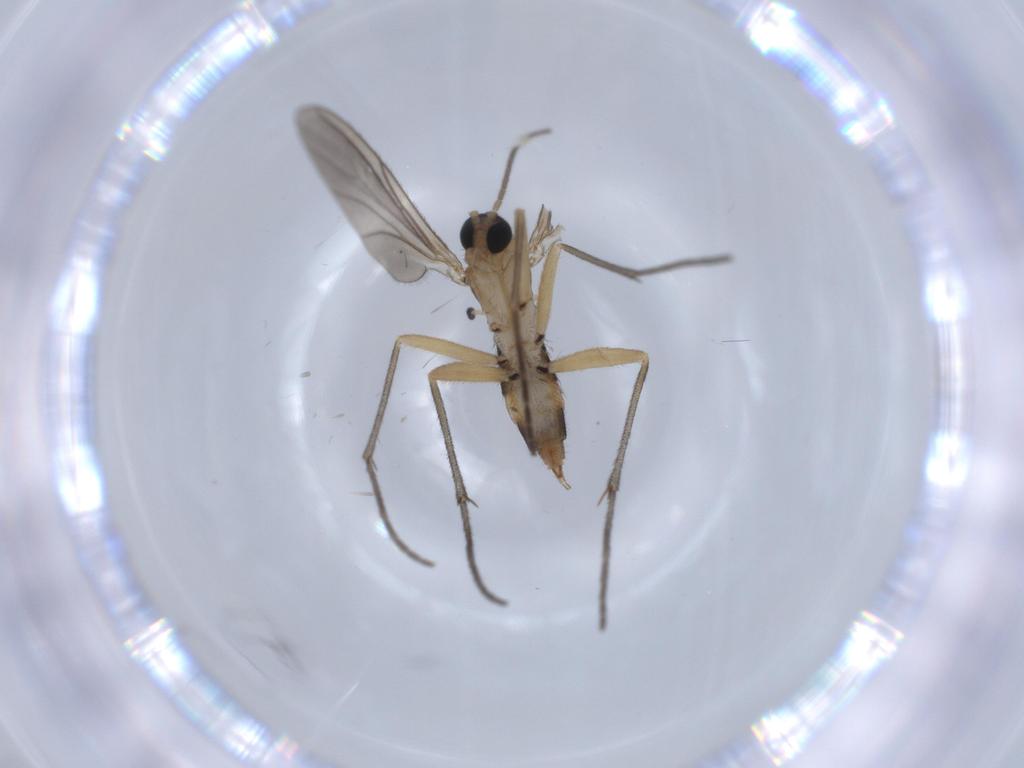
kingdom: Animalia
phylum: Arthropoda
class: Insecta
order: Diptera
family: Sciaridae
